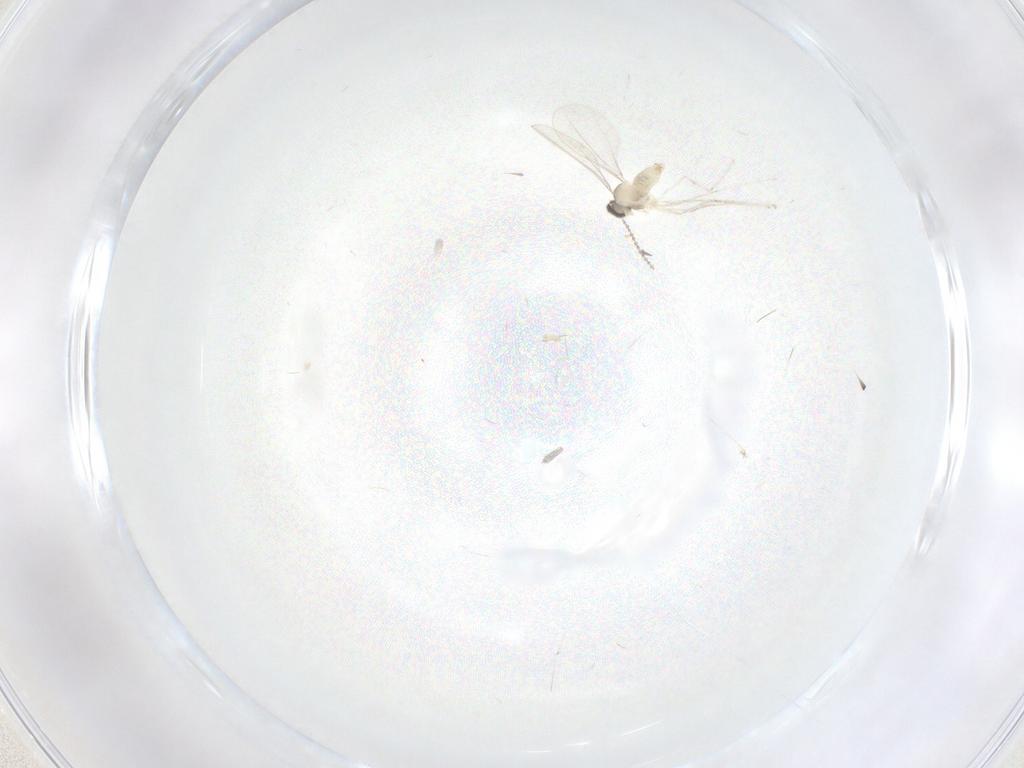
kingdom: Animalia
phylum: Arthropoda
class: Insecta
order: Diptera
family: Cecidomyiidae
